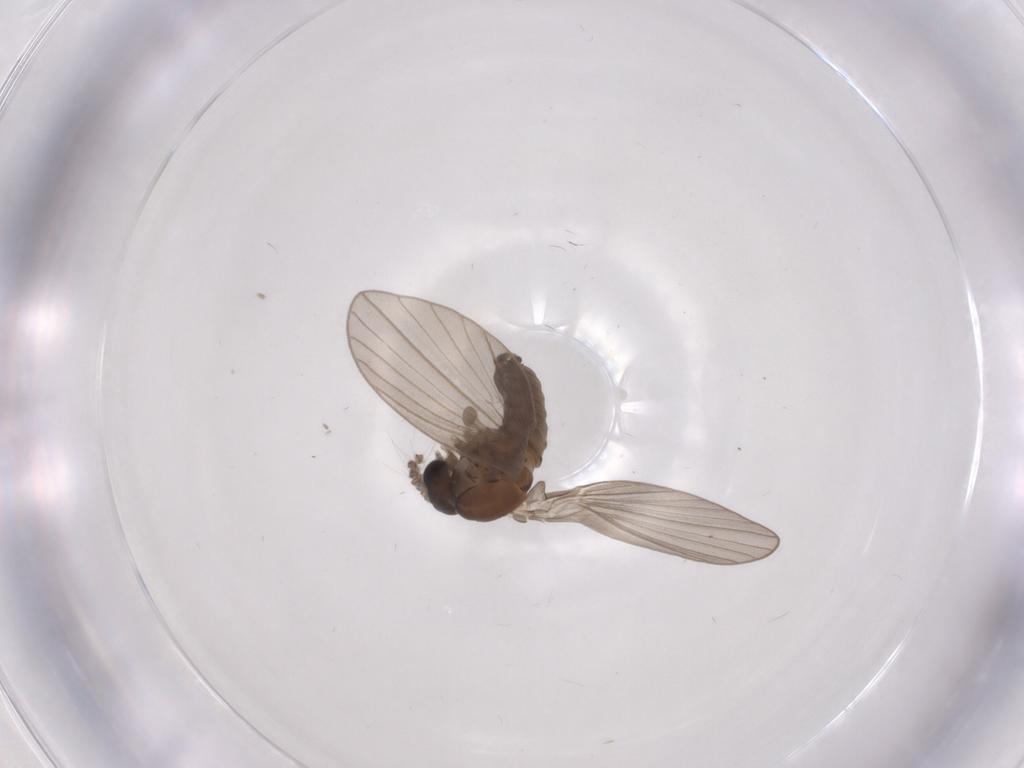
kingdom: Animalia
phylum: Arthropoda
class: Insecta
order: Diptera
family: Psychodidae
